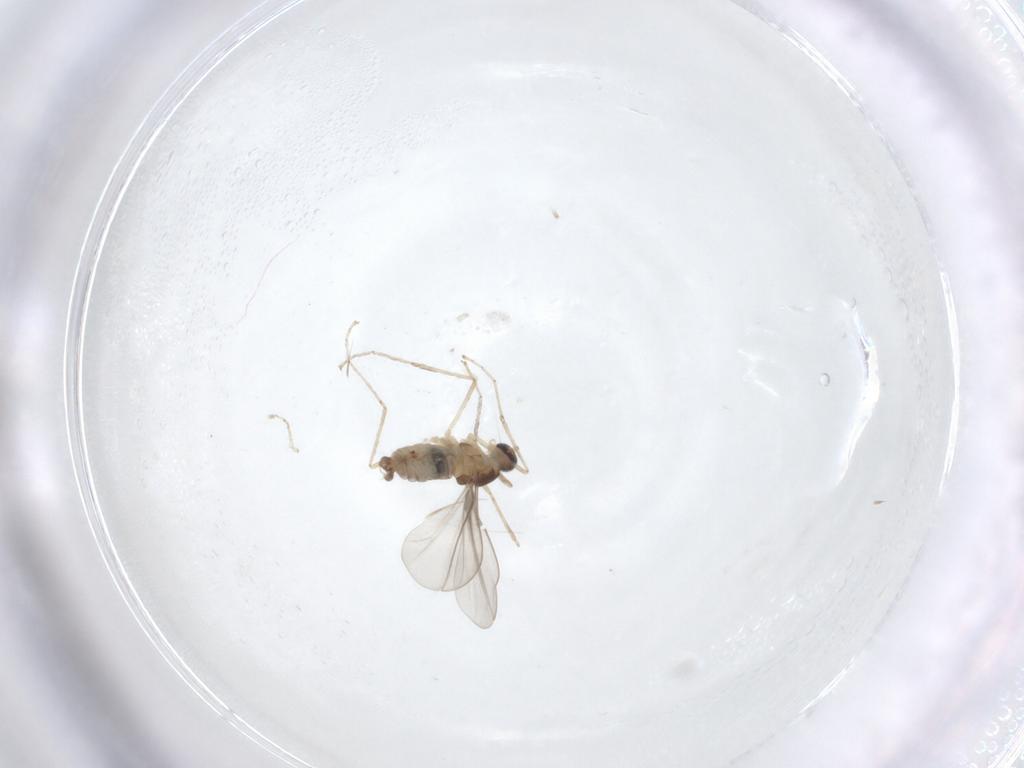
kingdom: Animalia
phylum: Arthropoda
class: Insecta
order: Diptera
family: Cecidomyiidae
